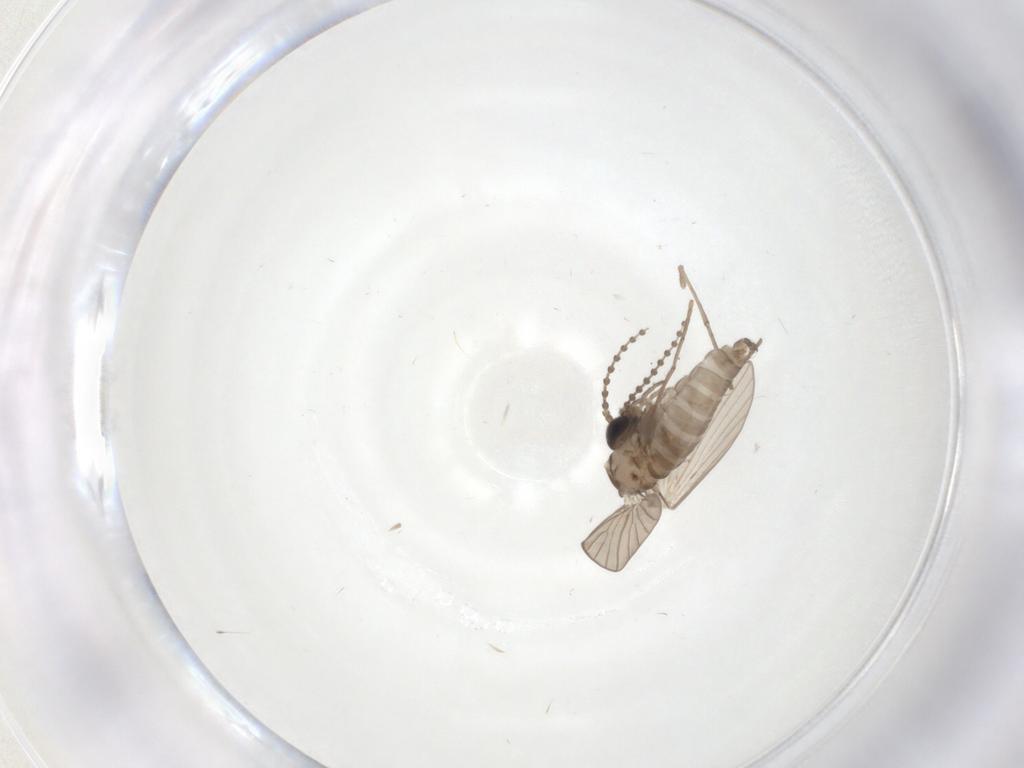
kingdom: Animalia
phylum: Arthropoda
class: Insecta
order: Diptera
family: Psychodidae
